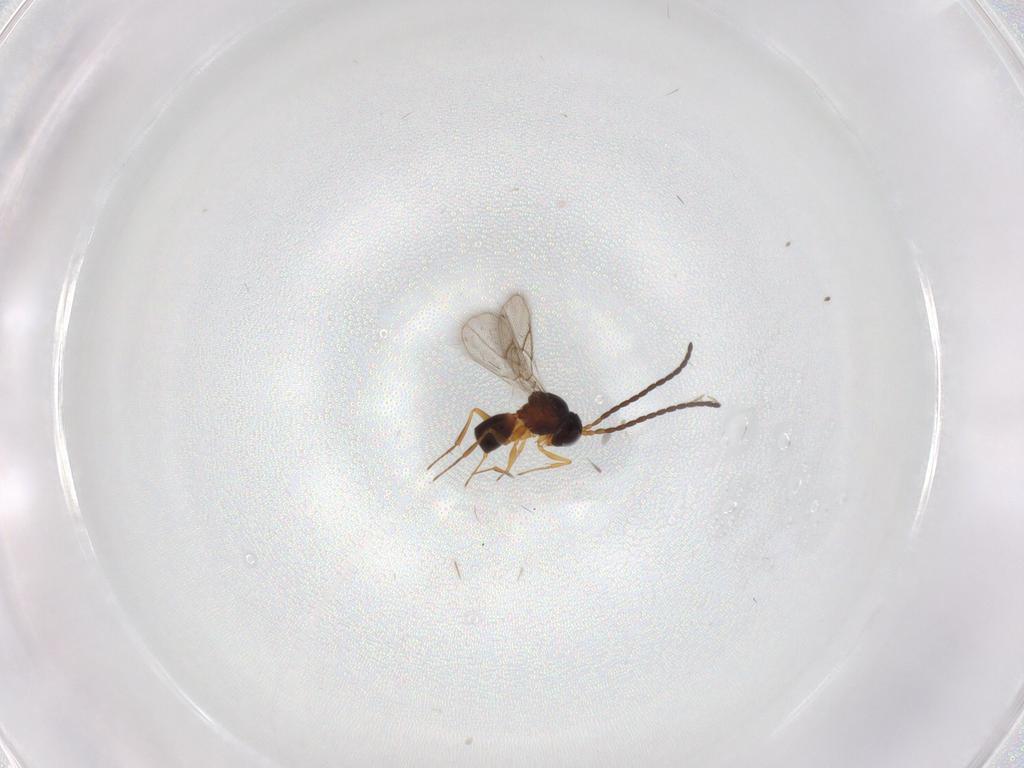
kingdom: Animalia
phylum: Arthropoda
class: Insecta
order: Hymenoptera
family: Figitidae
